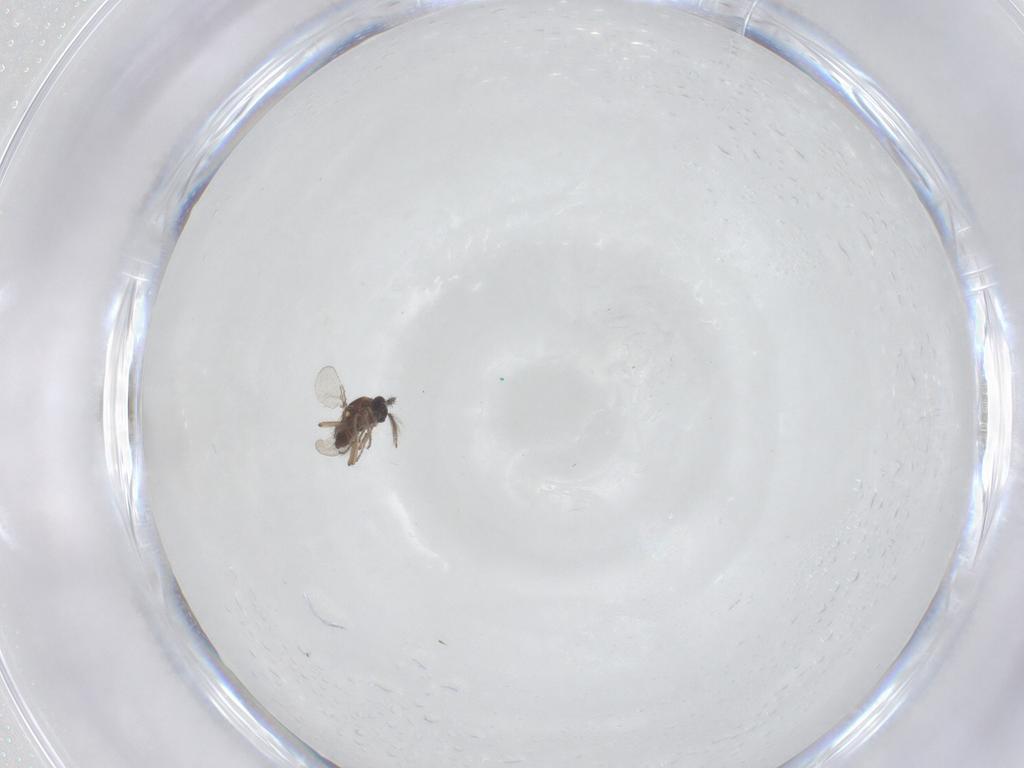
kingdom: Animalia
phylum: Arthropoda
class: Insecta
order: Diptera
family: Ceratopogonidae
